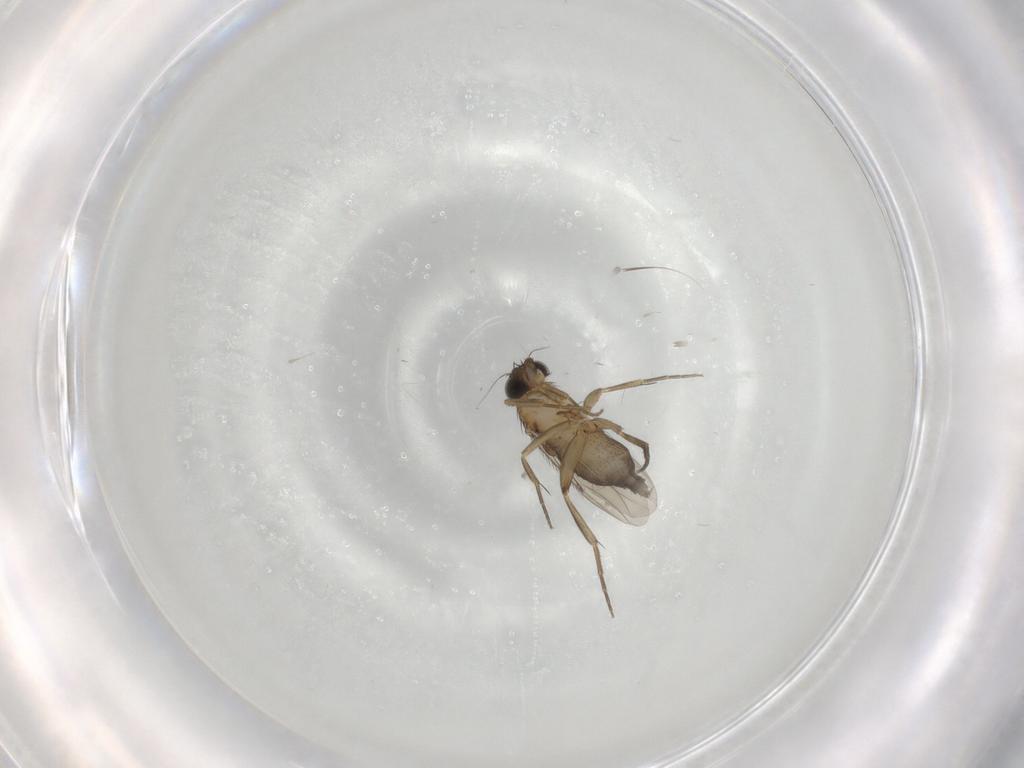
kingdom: Animalia
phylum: Arthropoda
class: Insecta
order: Diptera
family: Phoridae
